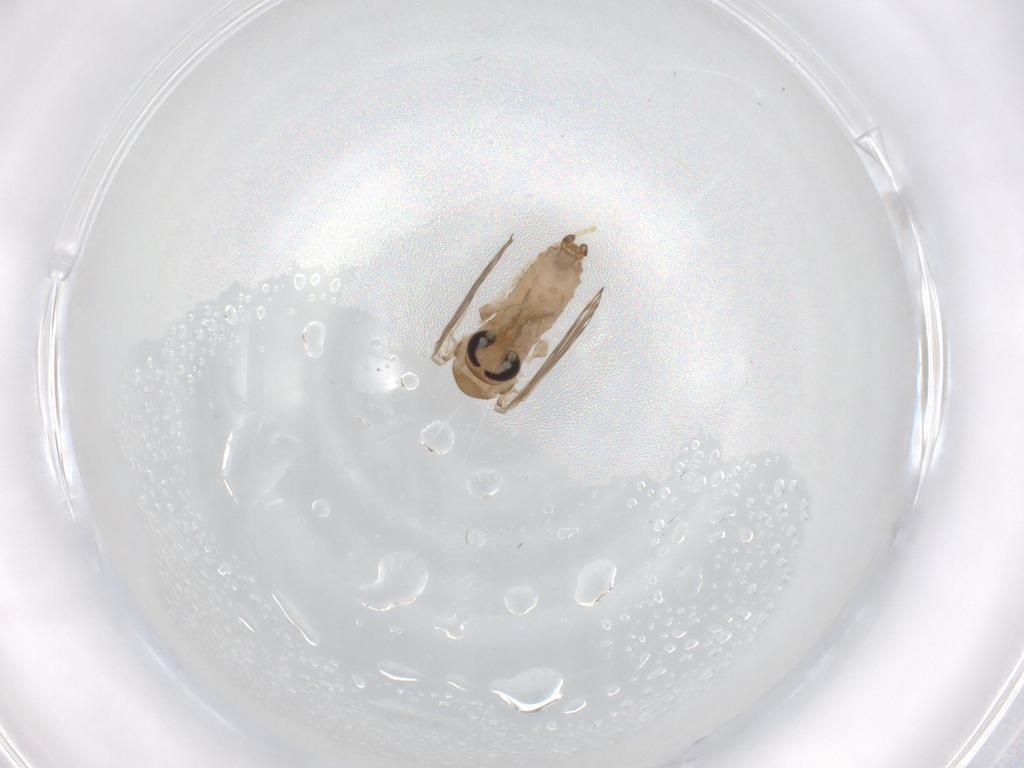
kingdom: Animalia
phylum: Arthropoda
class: Insecta
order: Diptera
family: Psychodidae
